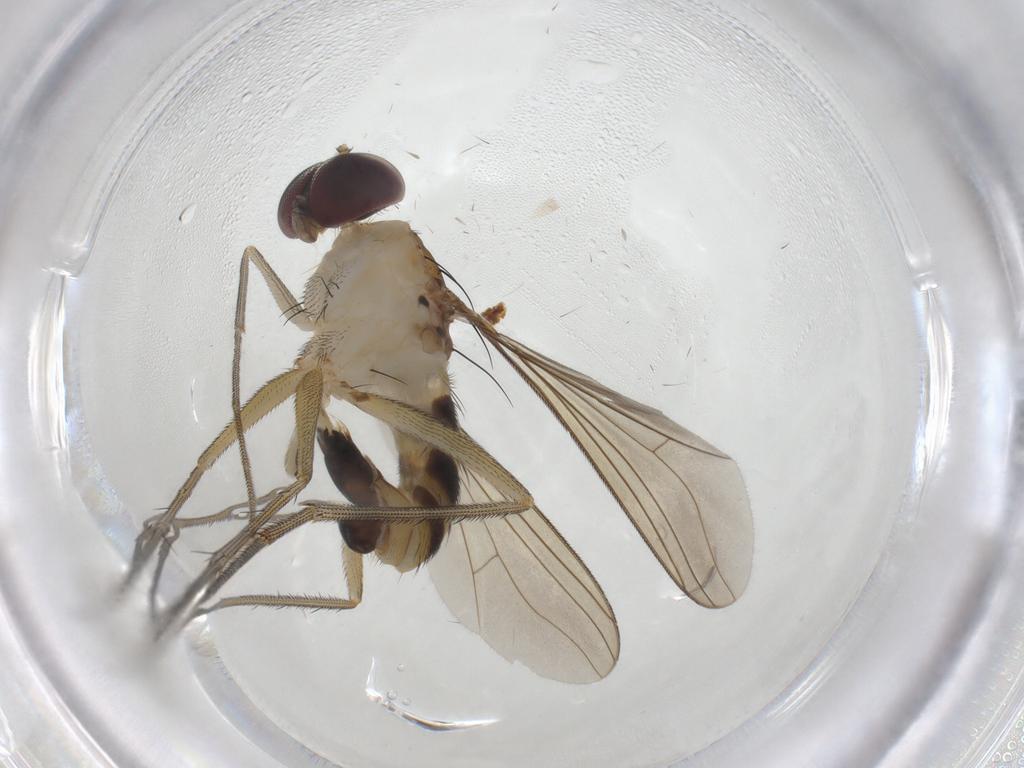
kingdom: Animalia
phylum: Arthropoda
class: Insecta
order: Diptera
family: Dolichopodidae
